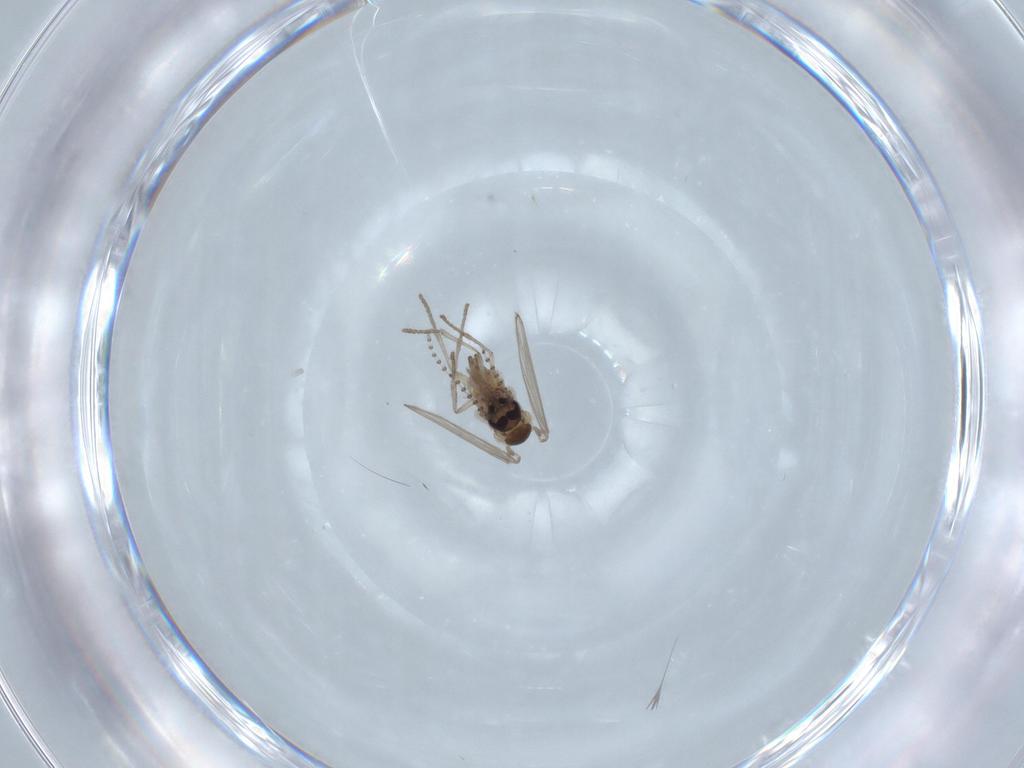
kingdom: Animalia
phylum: Arthropoda
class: Insecta
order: Diptera
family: Psychodidae
